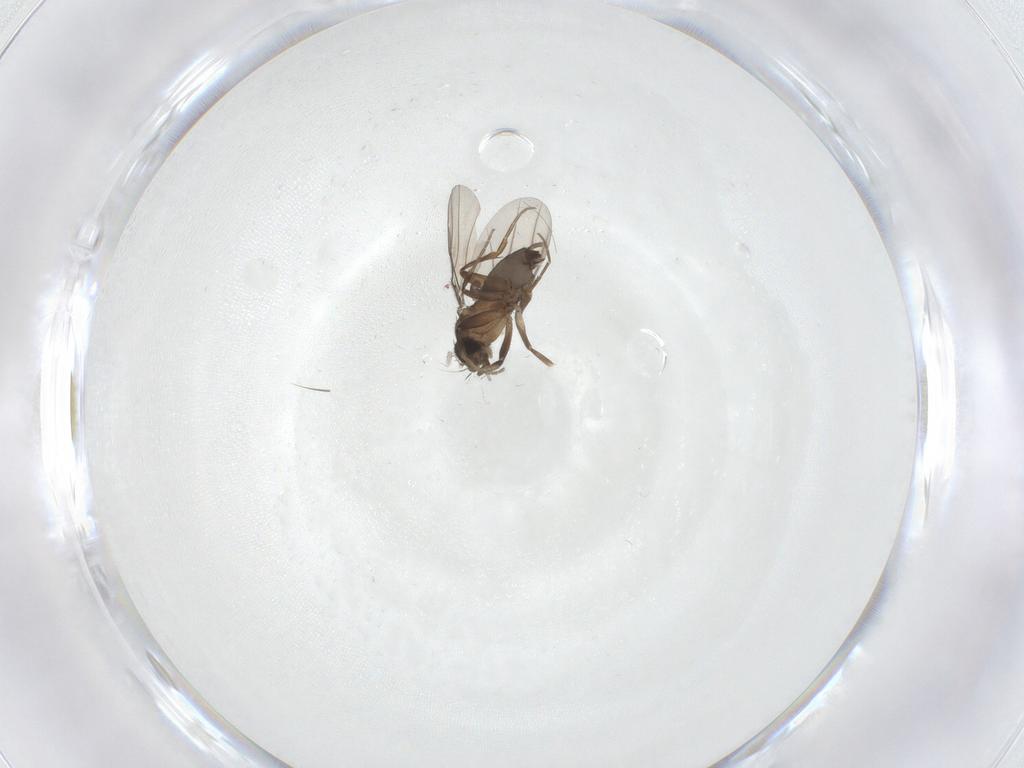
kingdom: Animalia
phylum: Arthropoda
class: Insecta
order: Diptera
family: Phoridae
